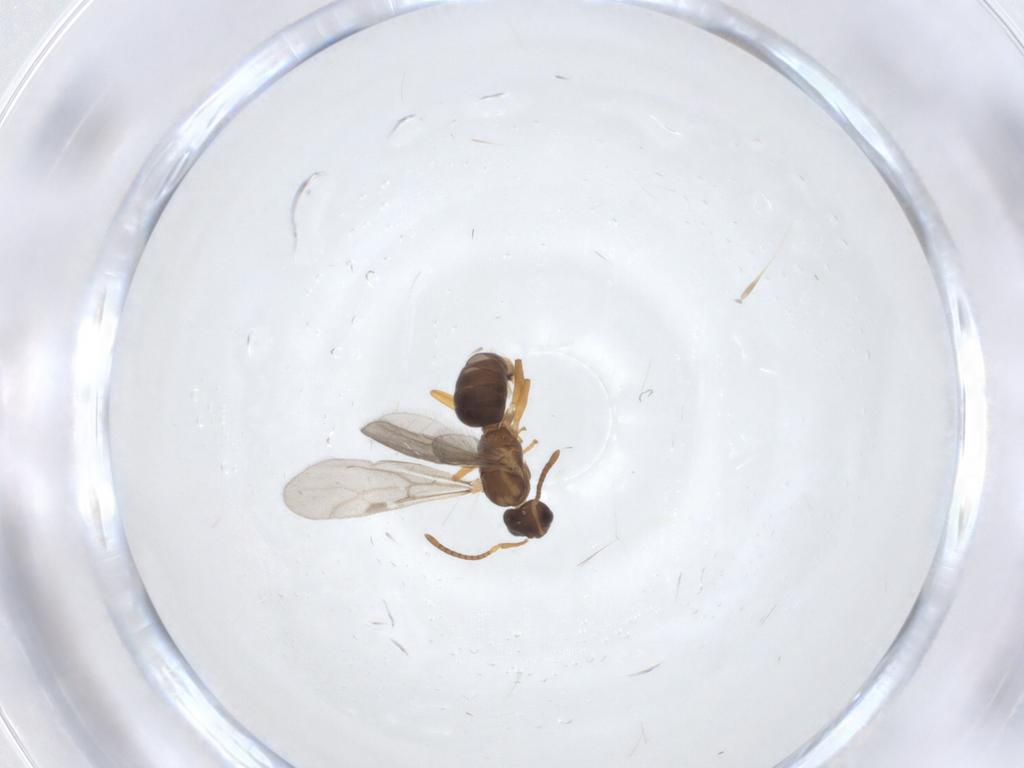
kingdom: Animalia
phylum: Arthropoda
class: Insecta
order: Hymenoptera
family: Formicidae
